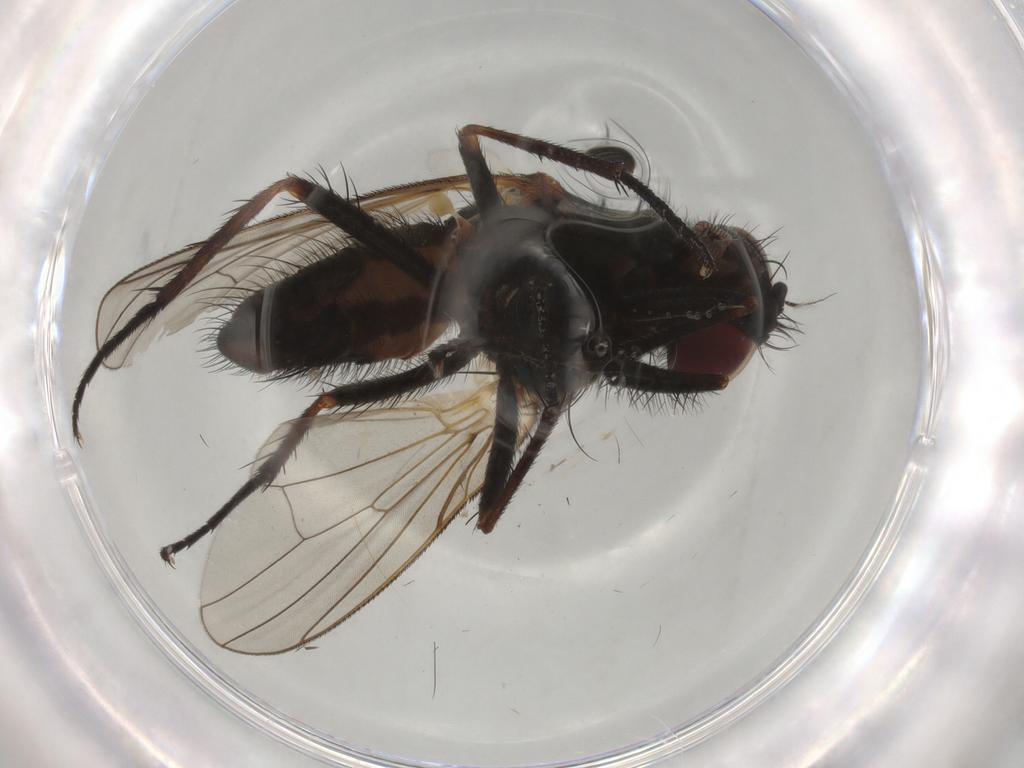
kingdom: Animalia
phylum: Arthropoda
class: Insecta
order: Diptera
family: Anthomyiidae
